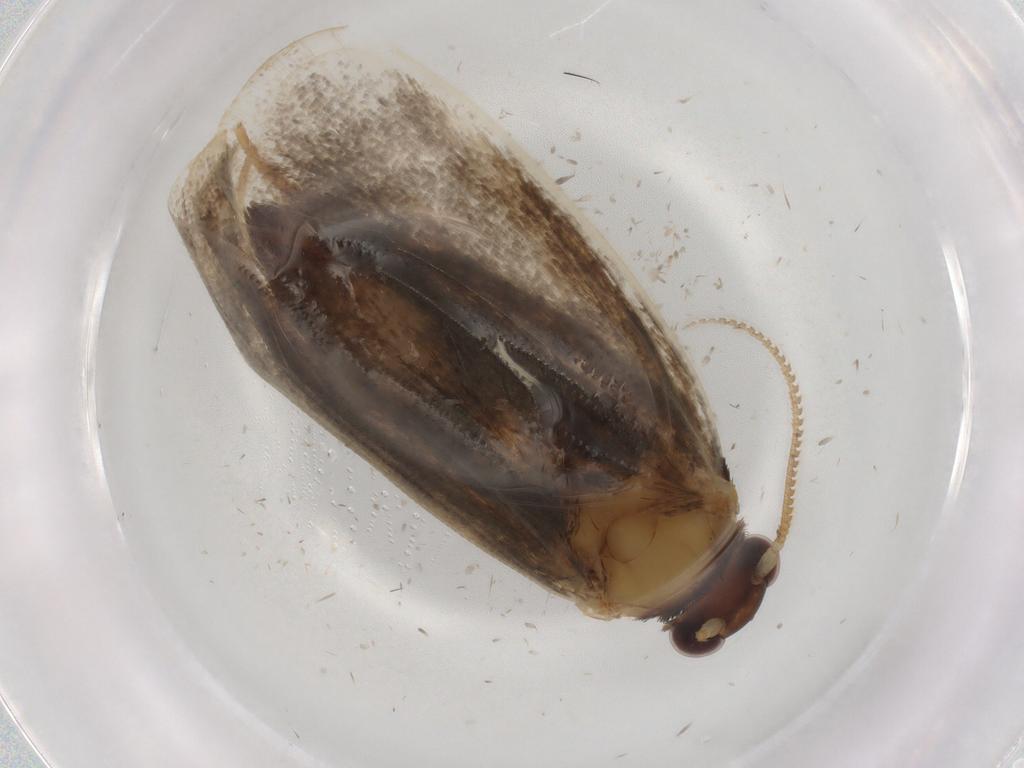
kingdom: Animalia
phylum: Arthropoda
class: Insecta
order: Lepidoptera
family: Tineidae
